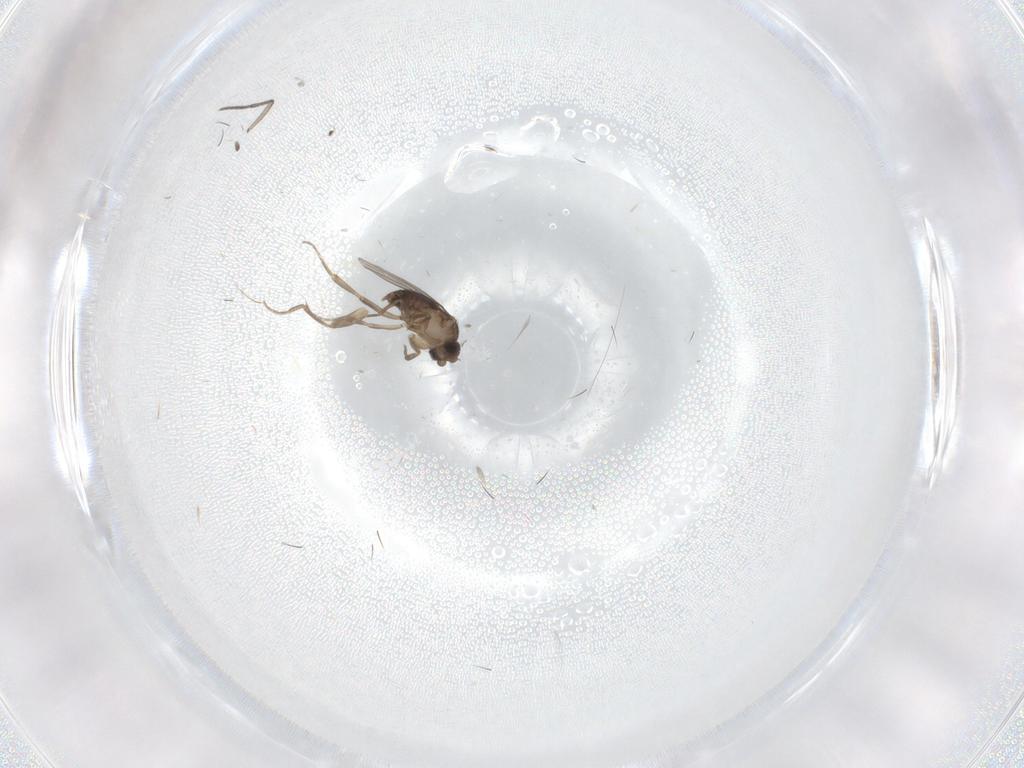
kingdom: Animalia
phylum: Arthropoda
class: Insecta
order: Diptera
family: Sciaridae
